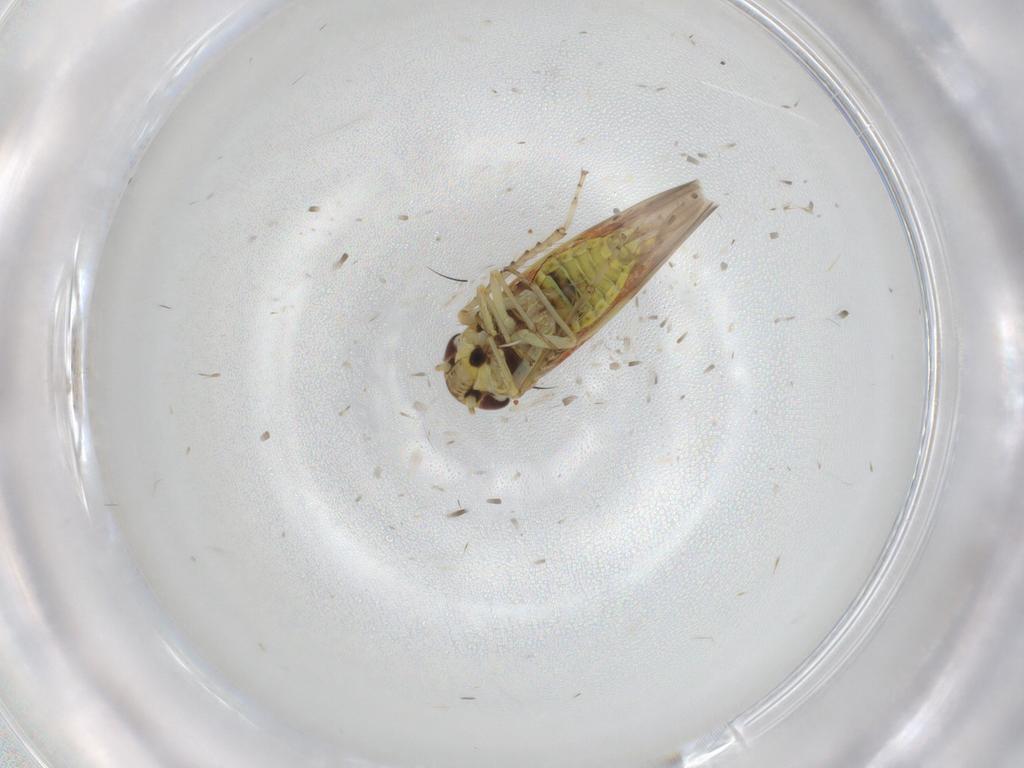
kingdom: Animalia
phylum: Arthropoda
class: Insecta
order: Hemiptera
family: Cicadellidae
